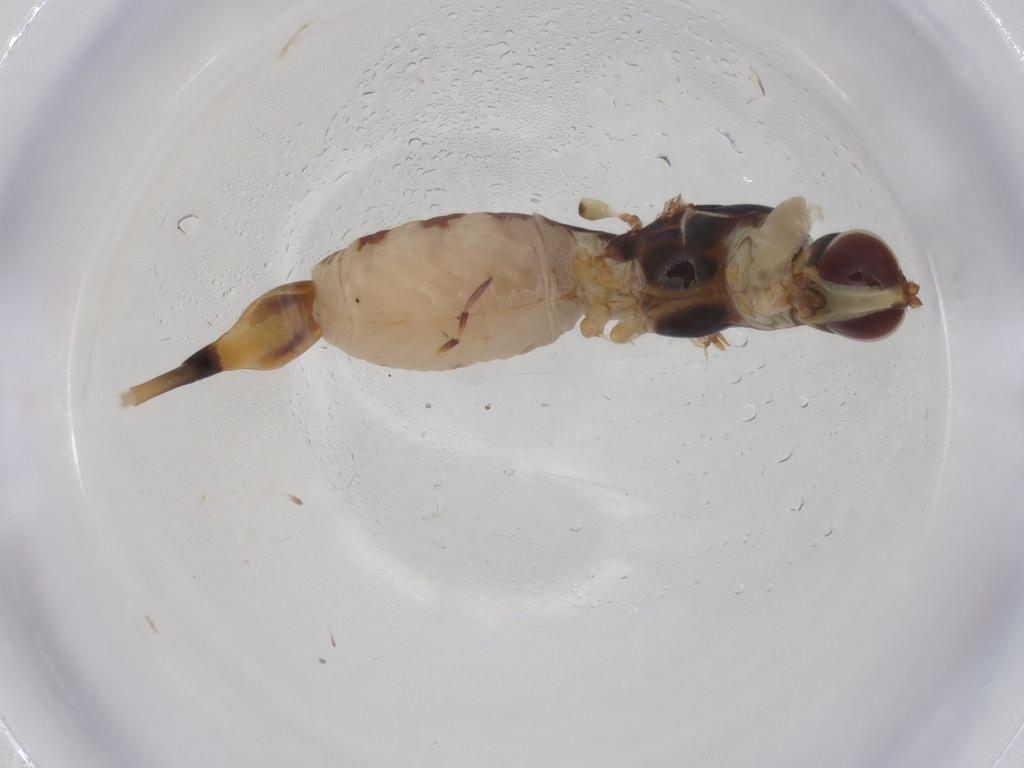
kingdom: Animalia
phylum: Arthropoda
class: Insecta
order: Diptera
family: Micropezidae
